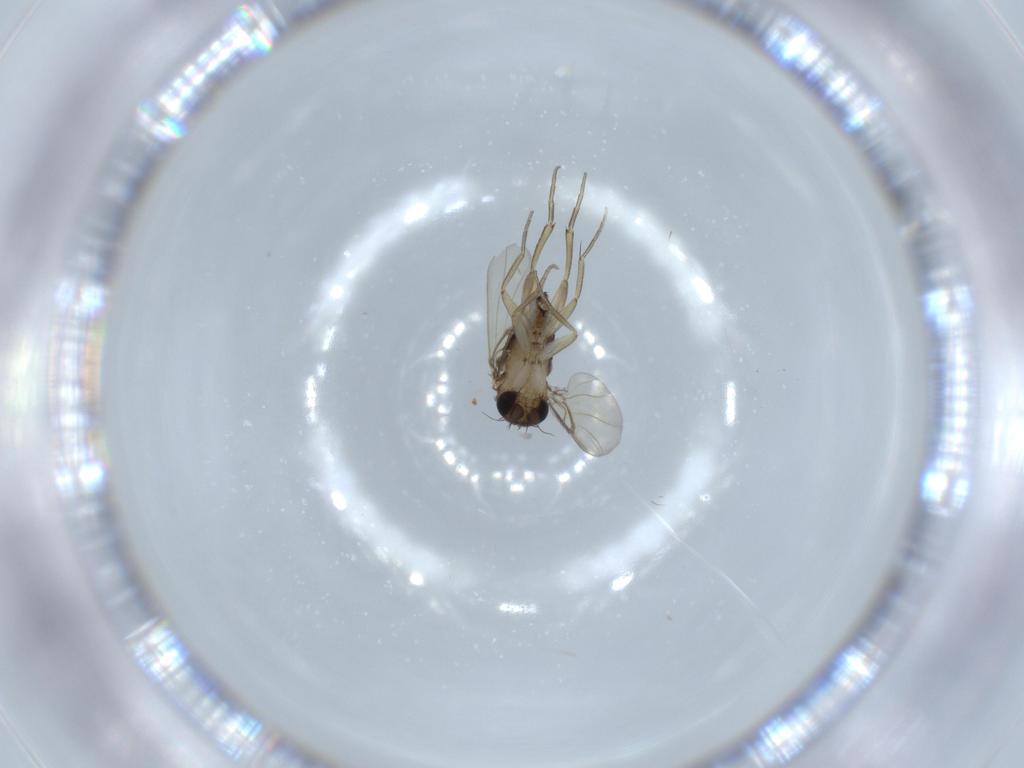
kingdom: Animalia
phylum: Arthropoda
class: Insecta
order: Diptera
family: Phoridae
